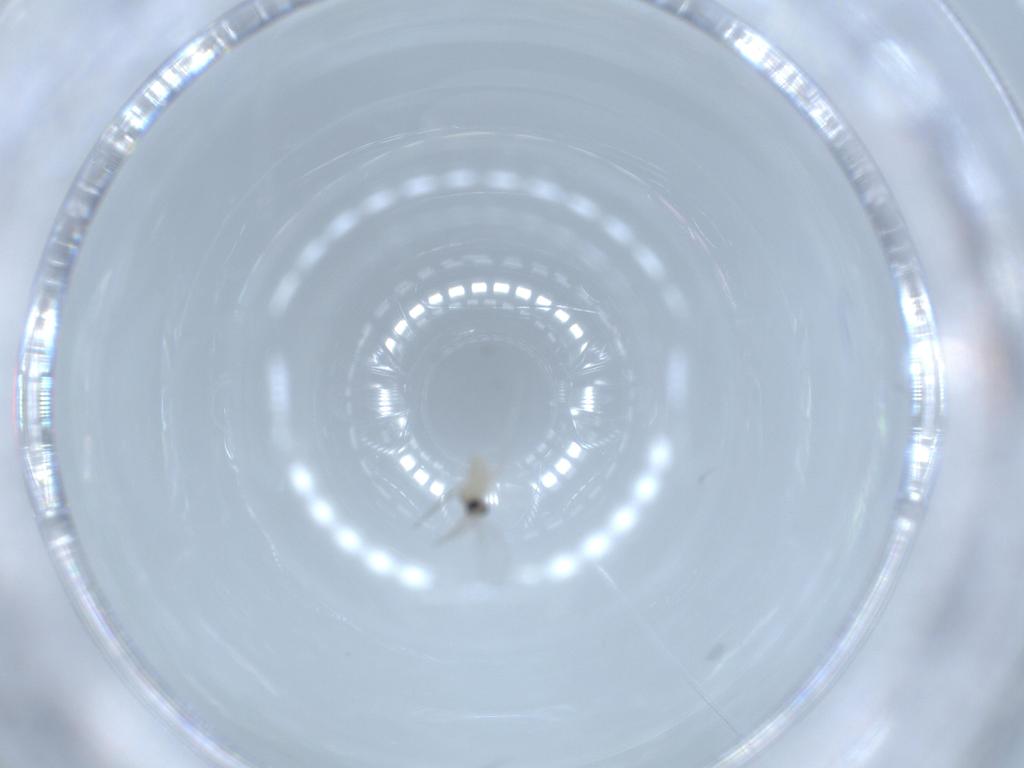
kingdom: Animalia
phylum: Arthropoda
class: Insecta
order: Diptera
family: Cecidomyiidae
